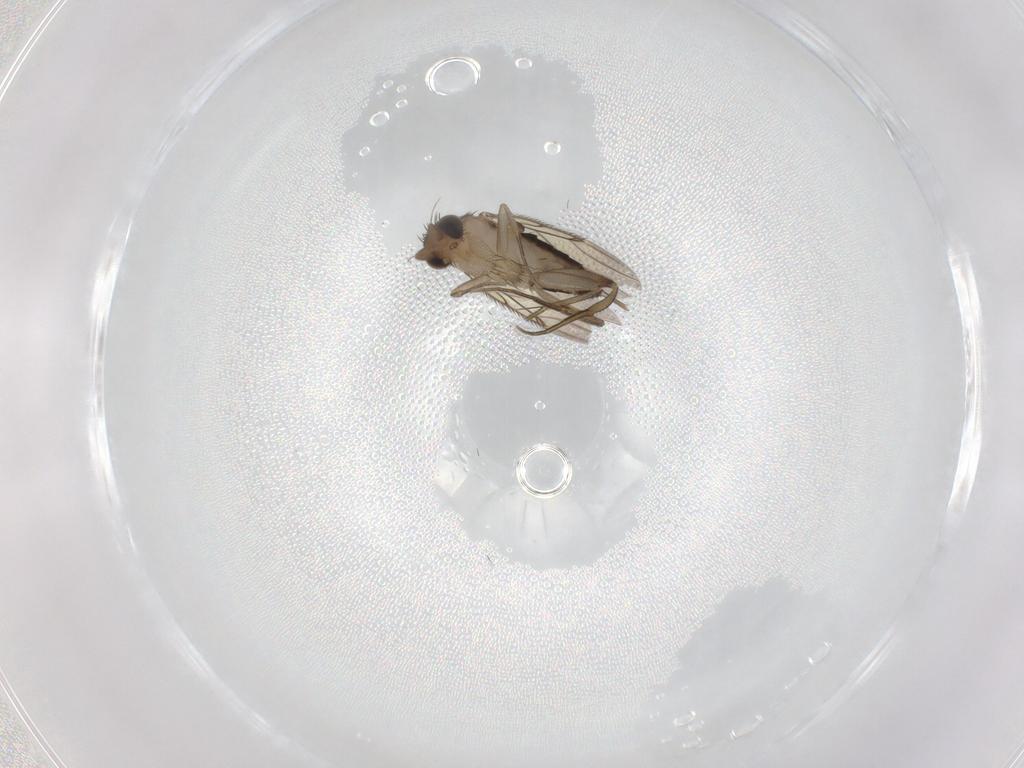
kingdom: Animalia
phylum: Arthropoda
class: Insecta
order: Diptera
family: Phoridae
